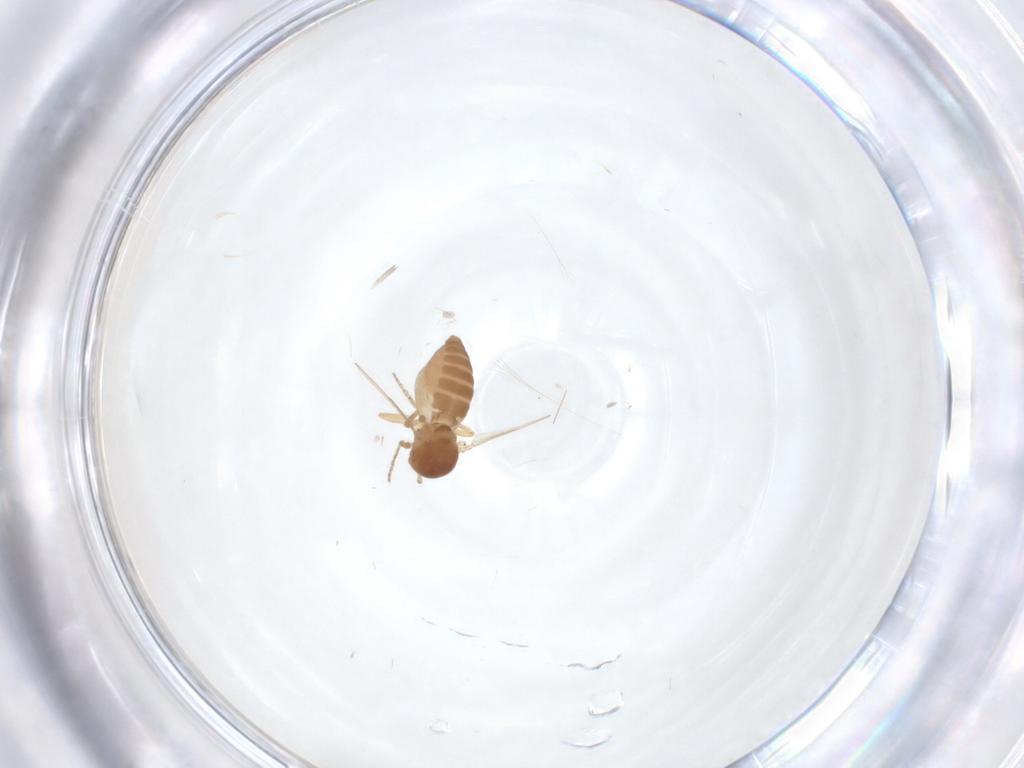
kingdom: Animalia
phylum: Arthropoda
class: Insecta
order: Diptera
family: Ceratopogonidae
